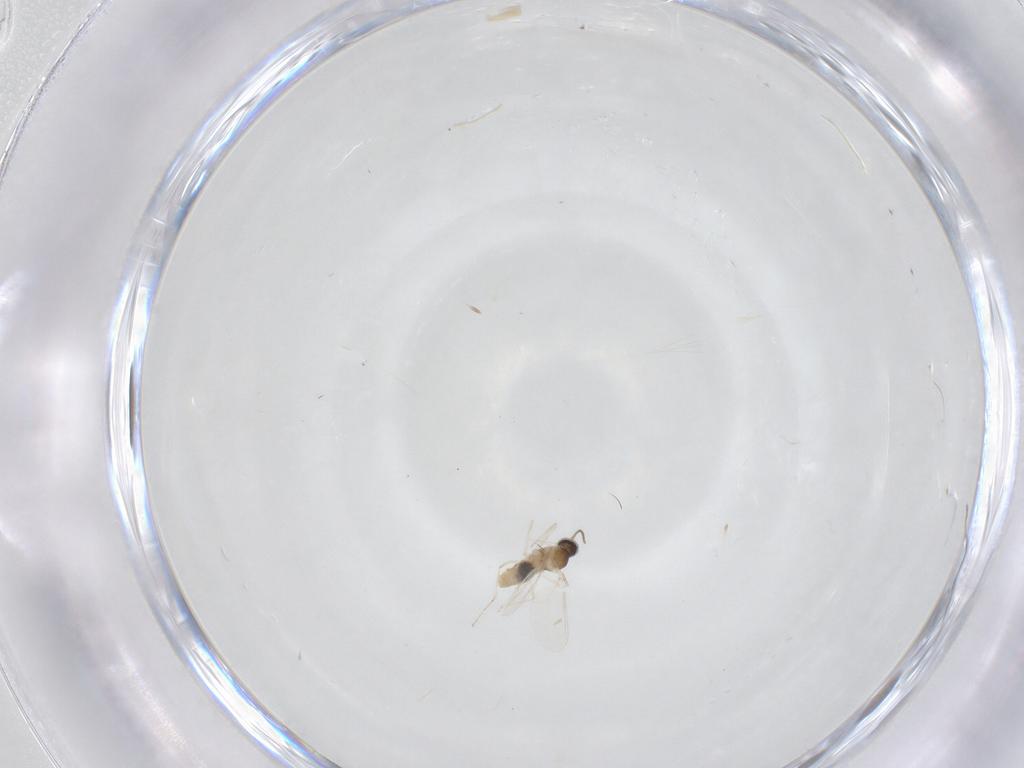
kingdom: Animalia
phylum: Arthropoda
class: Insecta
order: Diptera
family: Cecidomyiidae
